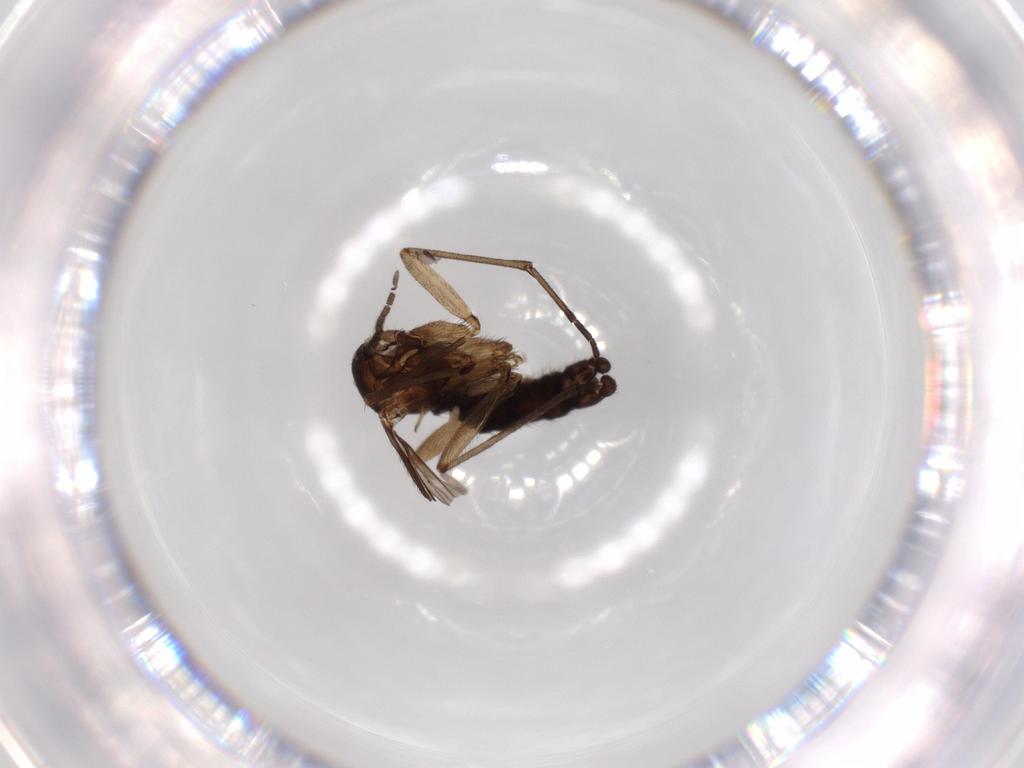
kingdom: Animalia
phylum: Arthropoda
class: Insecta
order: Diptera
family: Sciaridae
